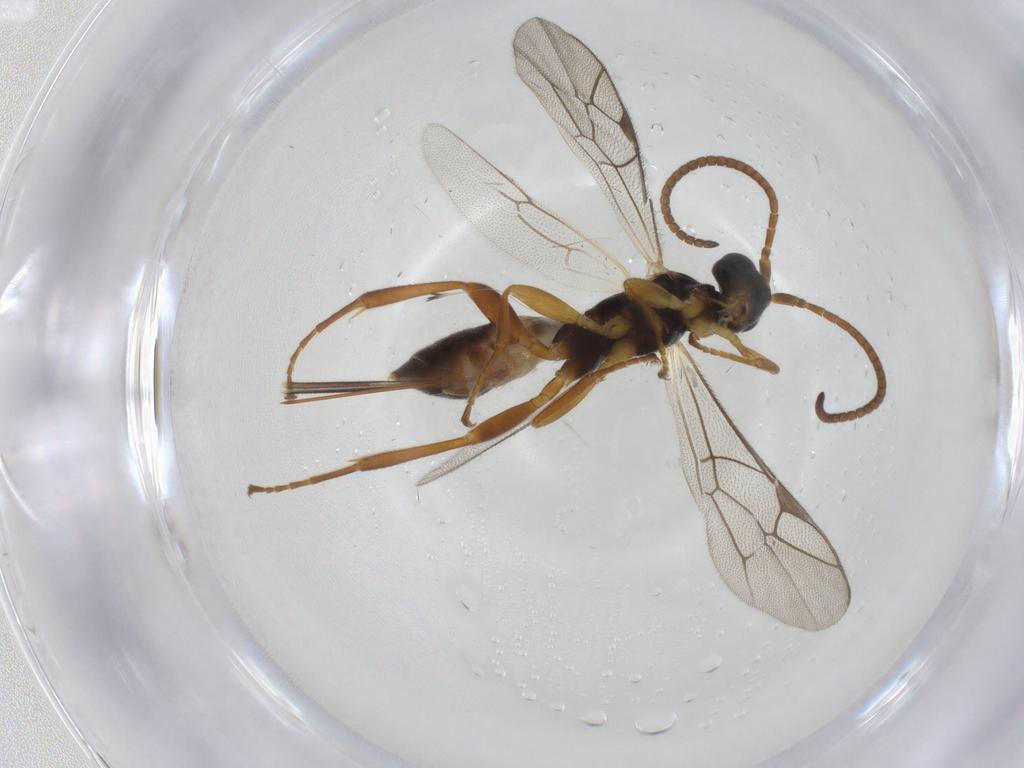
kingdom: Animalia
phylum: Arthropoda
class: Insecta
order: Hymenoptera
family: Ichneumonidae
